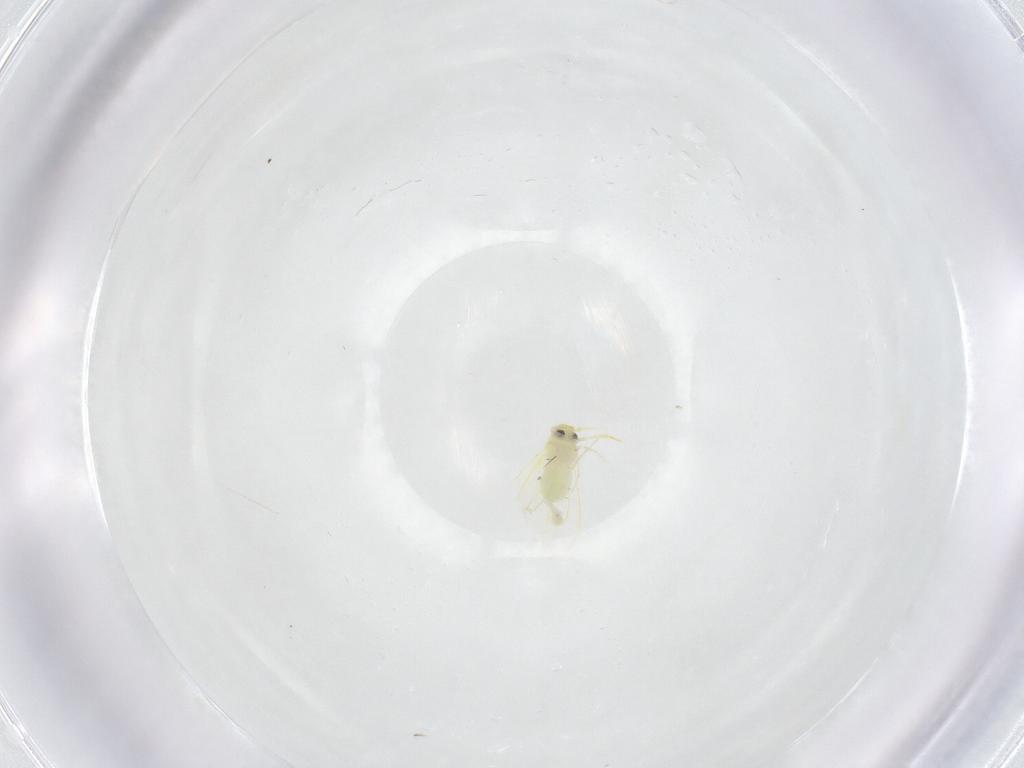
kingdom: Animalia
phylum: Arthropoda
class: Insecta
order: Hemiptera
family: Aleyrodidae
